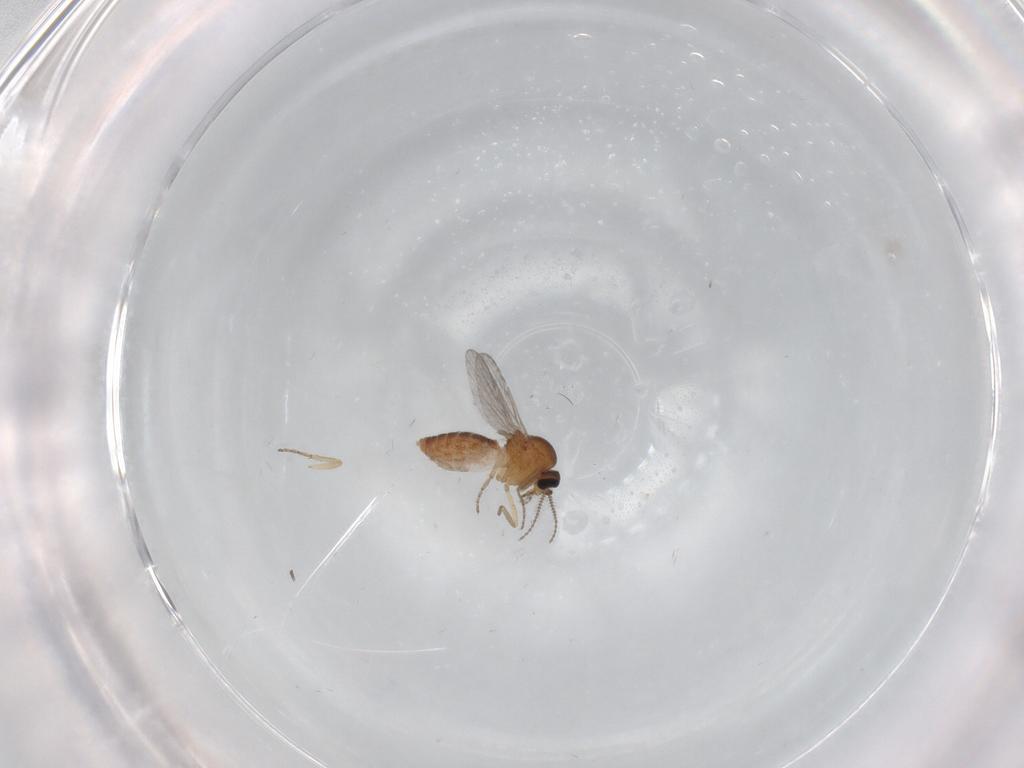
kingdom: Animalia
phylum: Arthropoda
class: Insecta
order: Diptera
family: Ceratopogonidae
